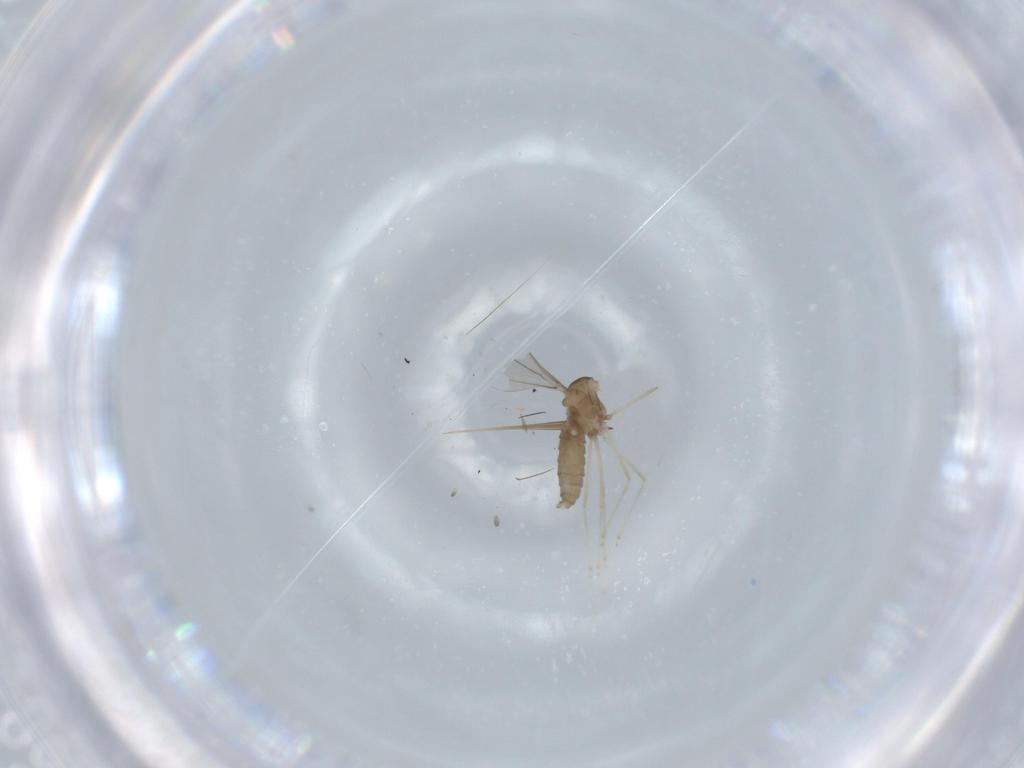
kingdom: Animalia
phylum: Arthropoda
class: Insecta
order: Diptera
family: Cecidomyiidae
